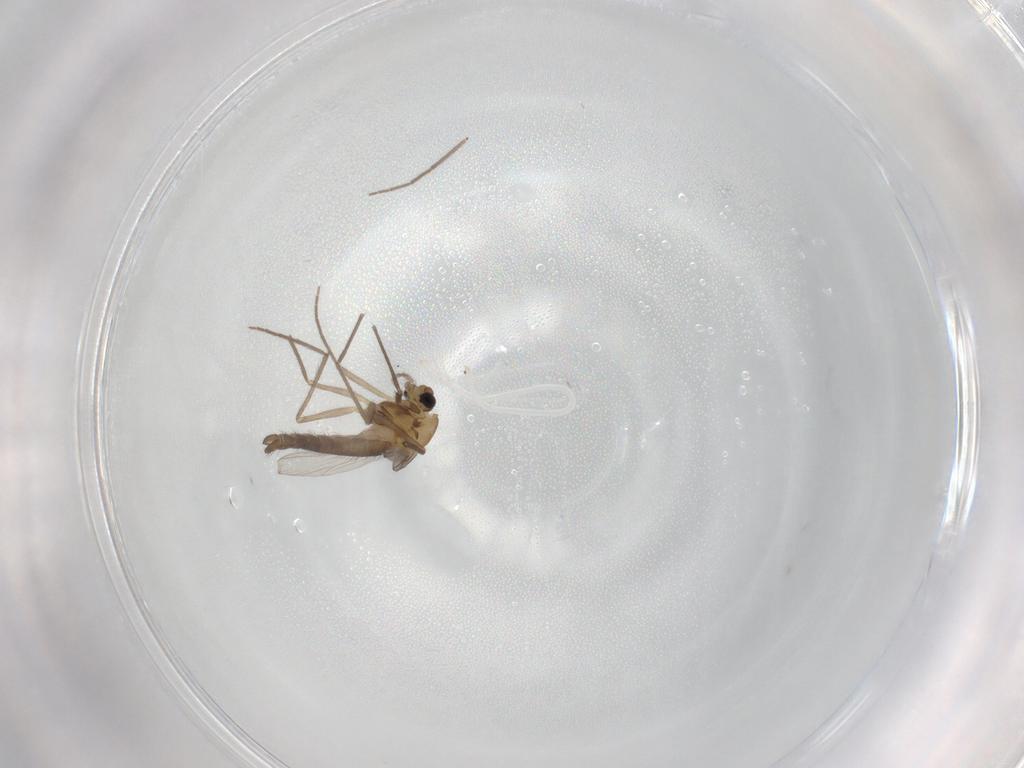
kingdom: Animalia
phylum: Arthropoda
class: Insecta
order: Diptera
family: Chironomidae
